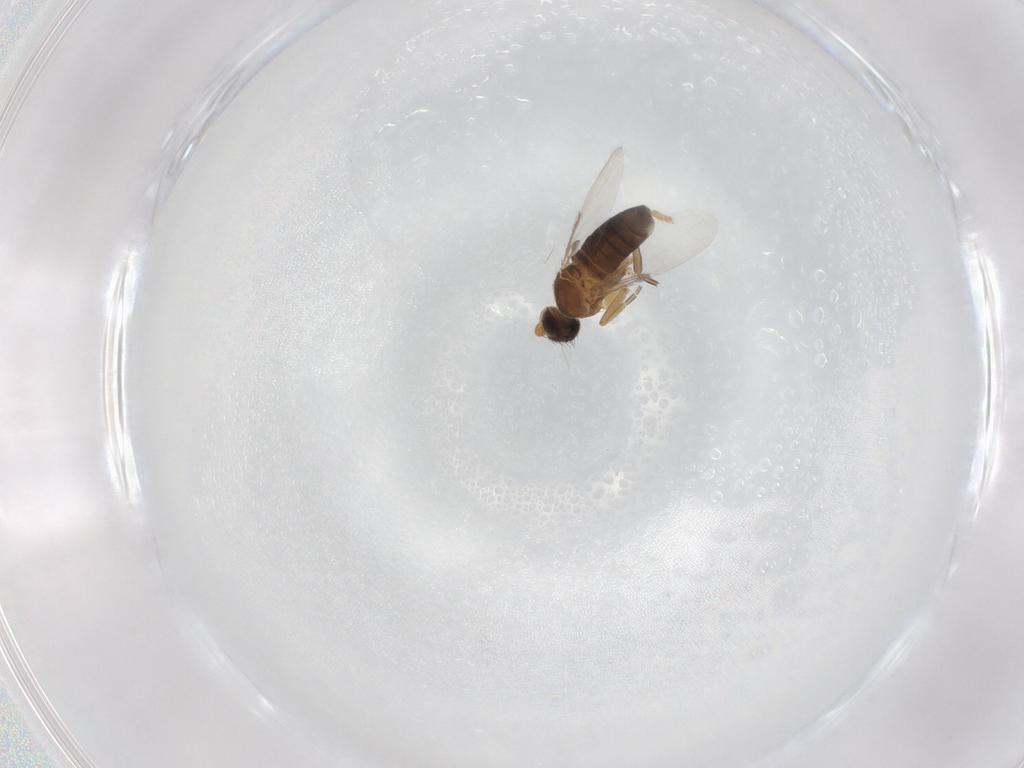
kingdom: Animalia
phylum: Arthropoda
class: Insecta
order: Diptera
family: Phoridae
